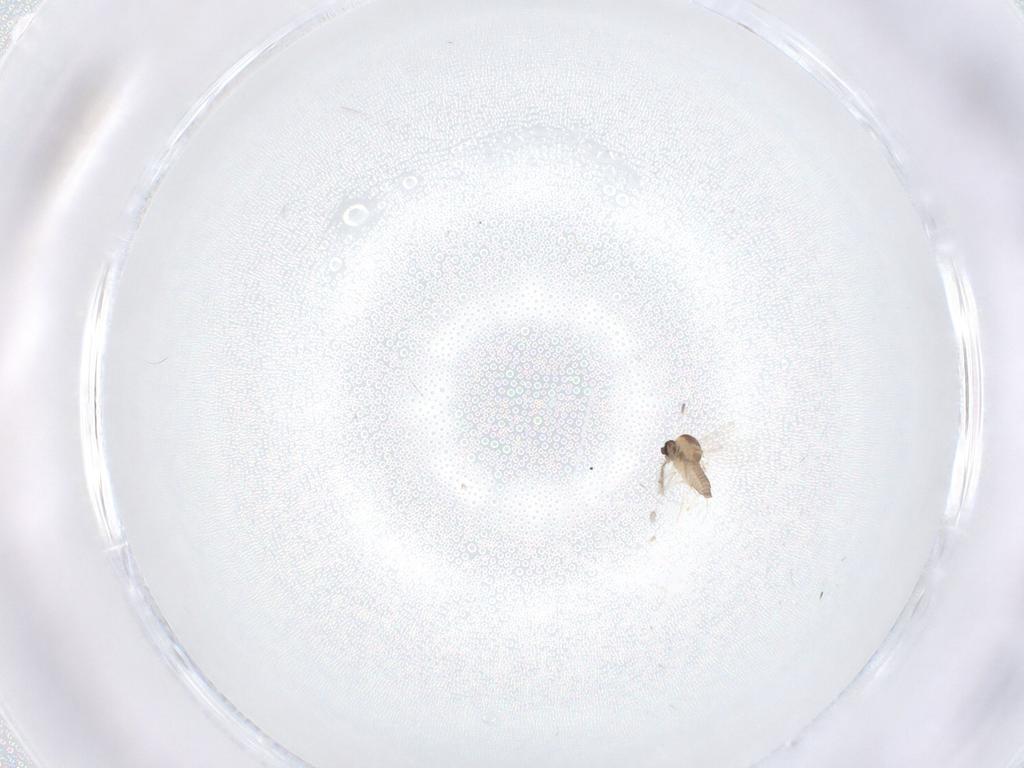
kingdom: Animalia
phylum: Arthropoda
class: Insecta
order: Diptera
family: Chironomidae
